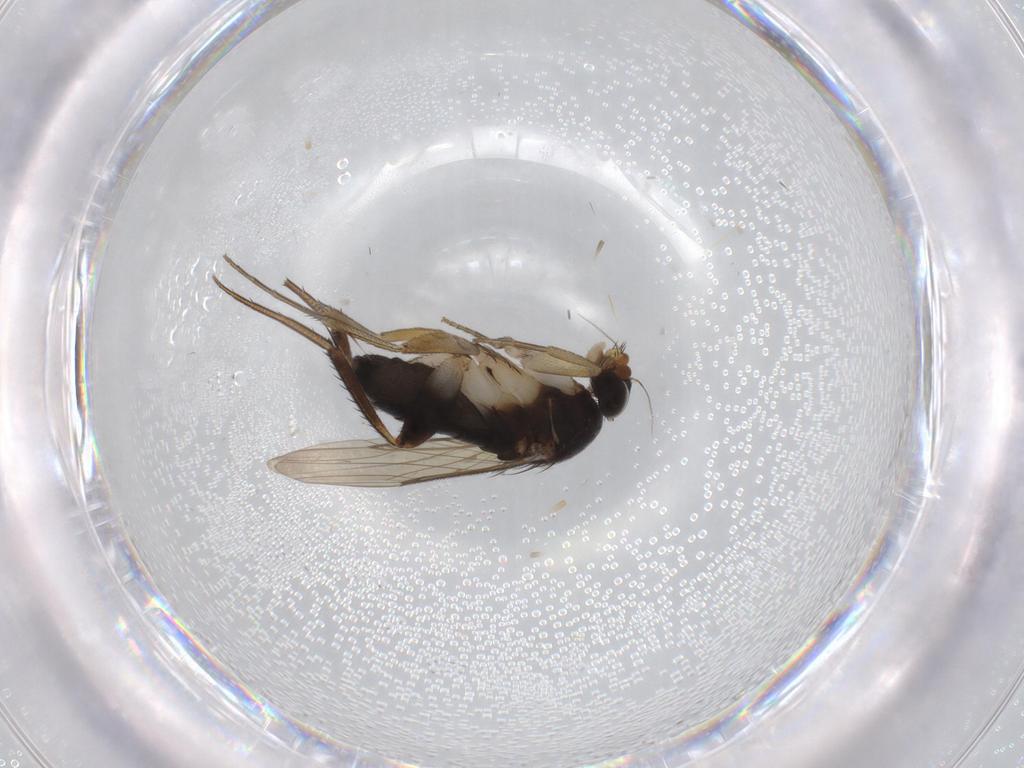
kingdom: Animalia
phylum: Arthropoda
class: Insecta
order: Diptera
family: Phoridae
